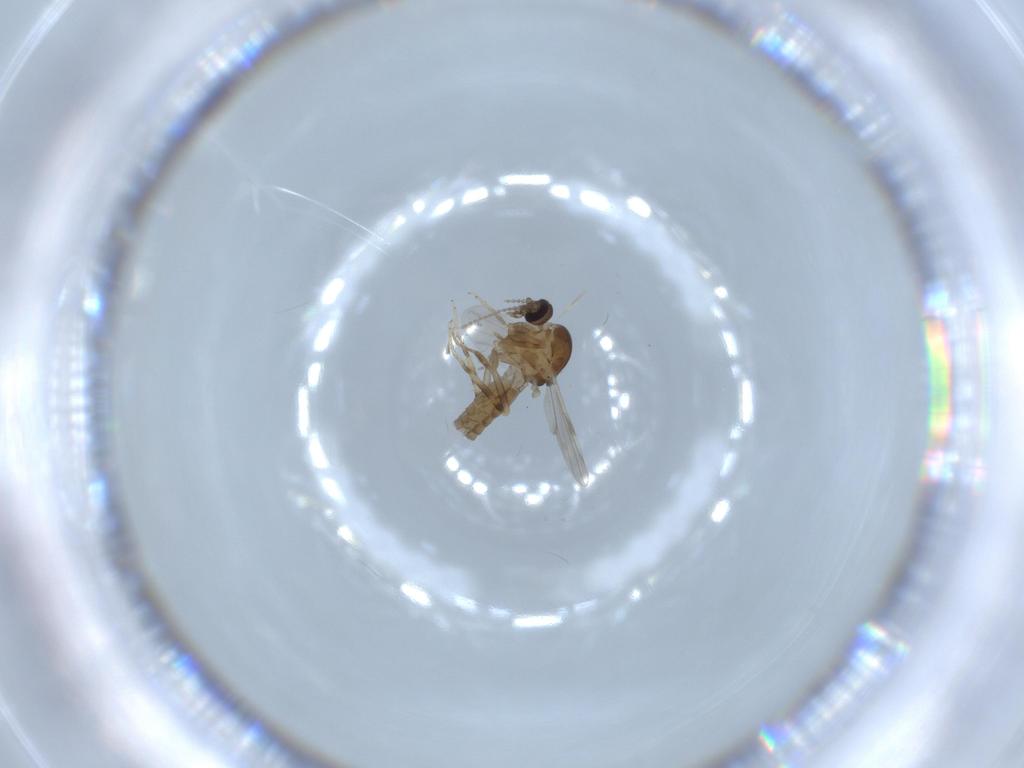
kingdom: Animalia
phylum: Arthropoda
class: Insecta
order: Diptera
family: Ceratopogonidae
